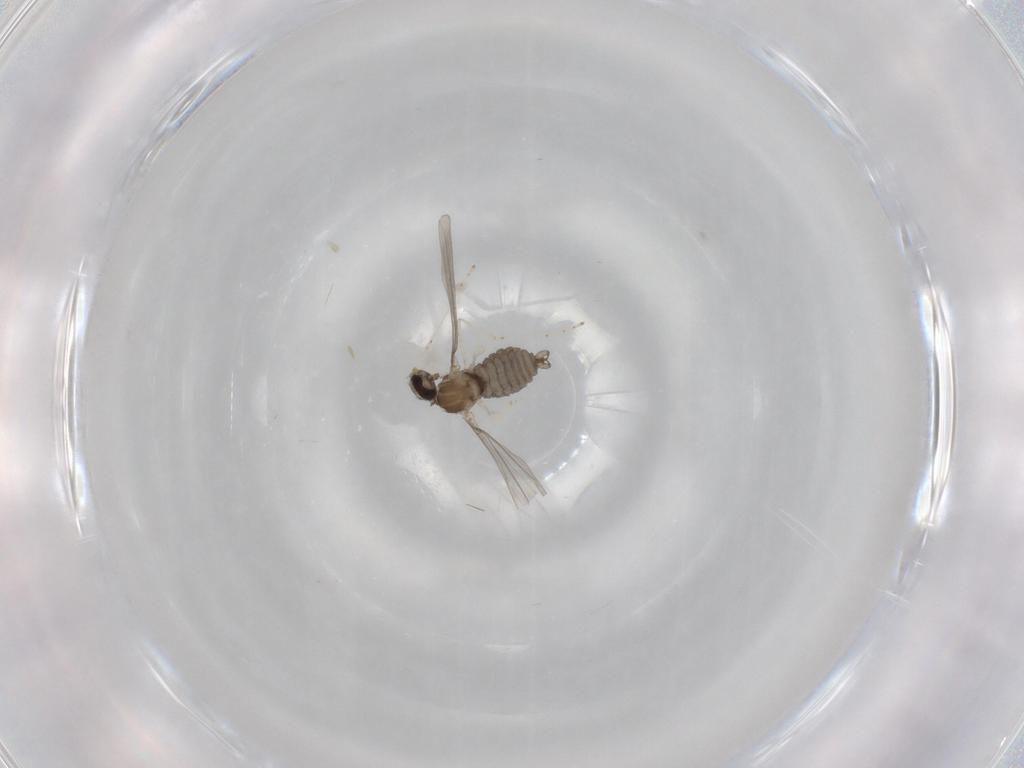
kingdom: Animalia
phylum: Arthropoda
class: Insecta
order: Diptera
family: Cecidomyiidae
